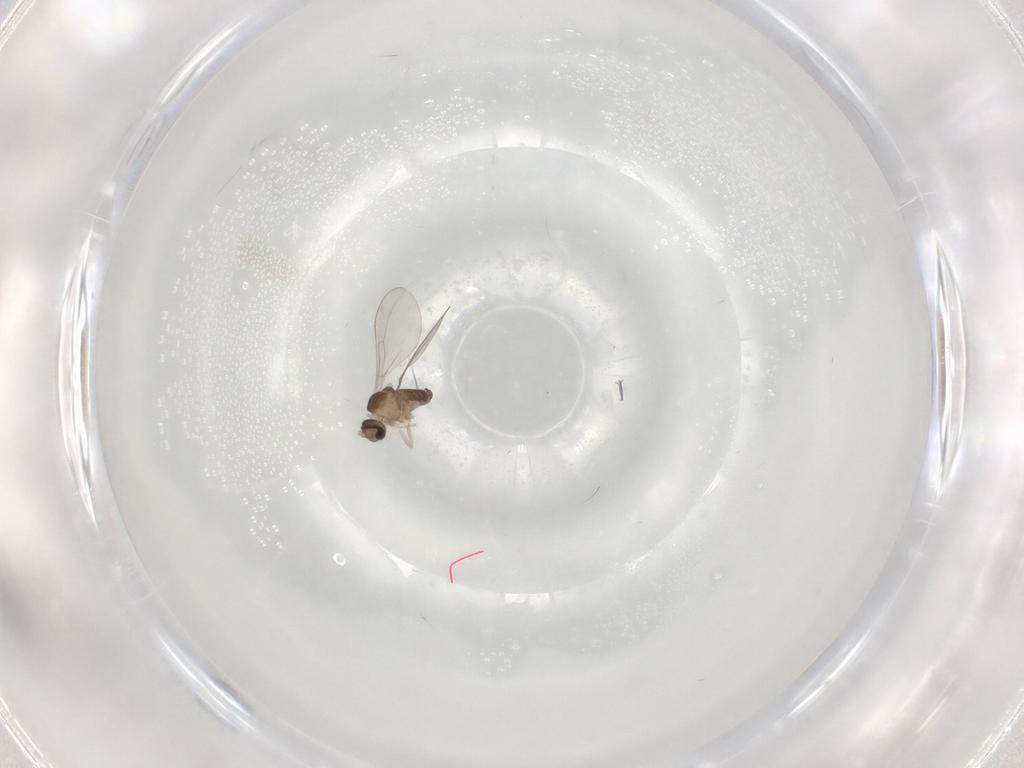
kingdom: Animalia
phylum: Arthropoda
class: Insecta
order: Diptera
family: Cecidomyiidae
